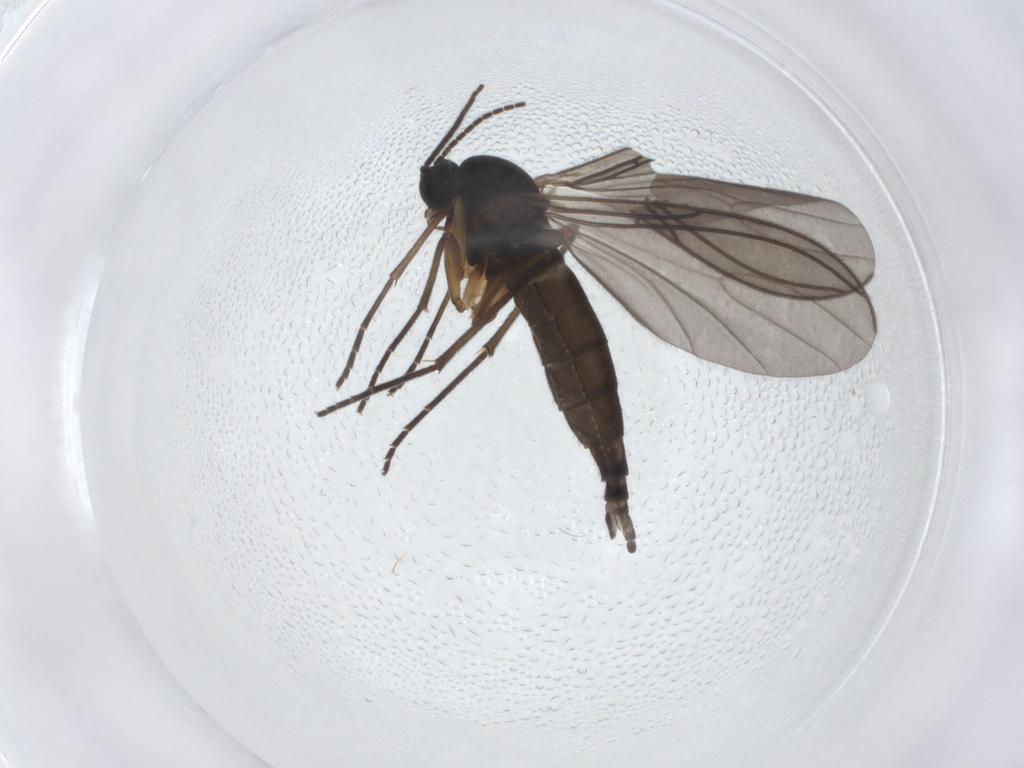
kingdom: Animalia
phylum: Arthropoda
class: Insecta
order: Diptera
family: Sciaridae
